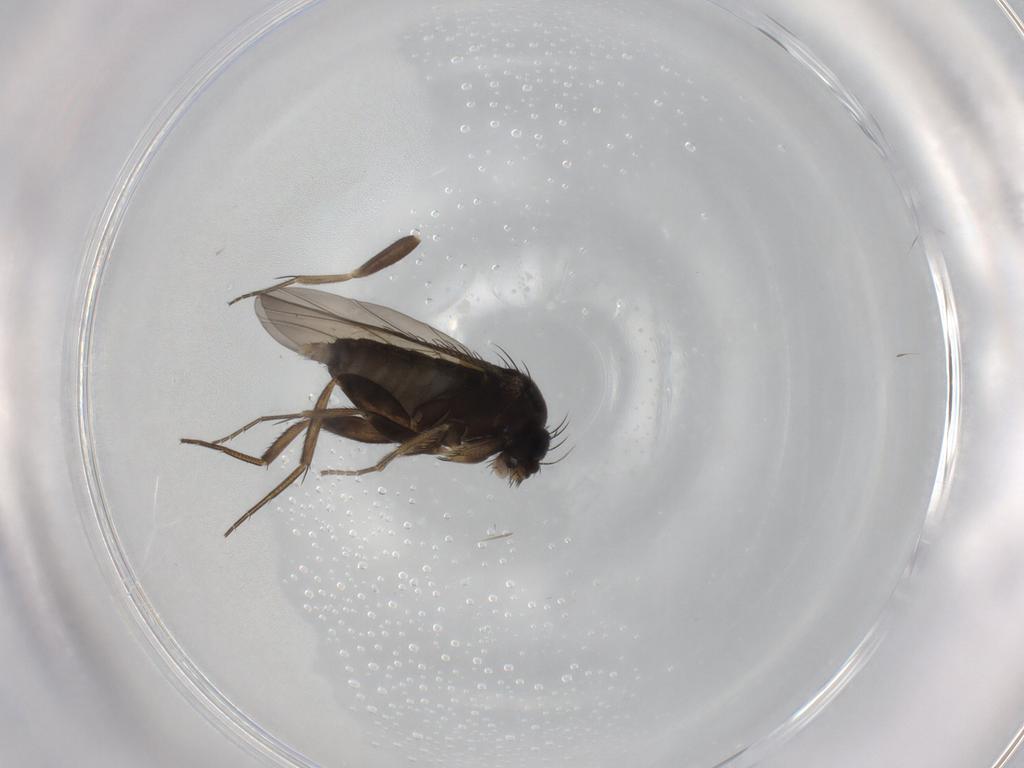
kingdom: Animalia
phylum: Arthropoda
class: Insecta
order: Diptera
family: Phoridae
